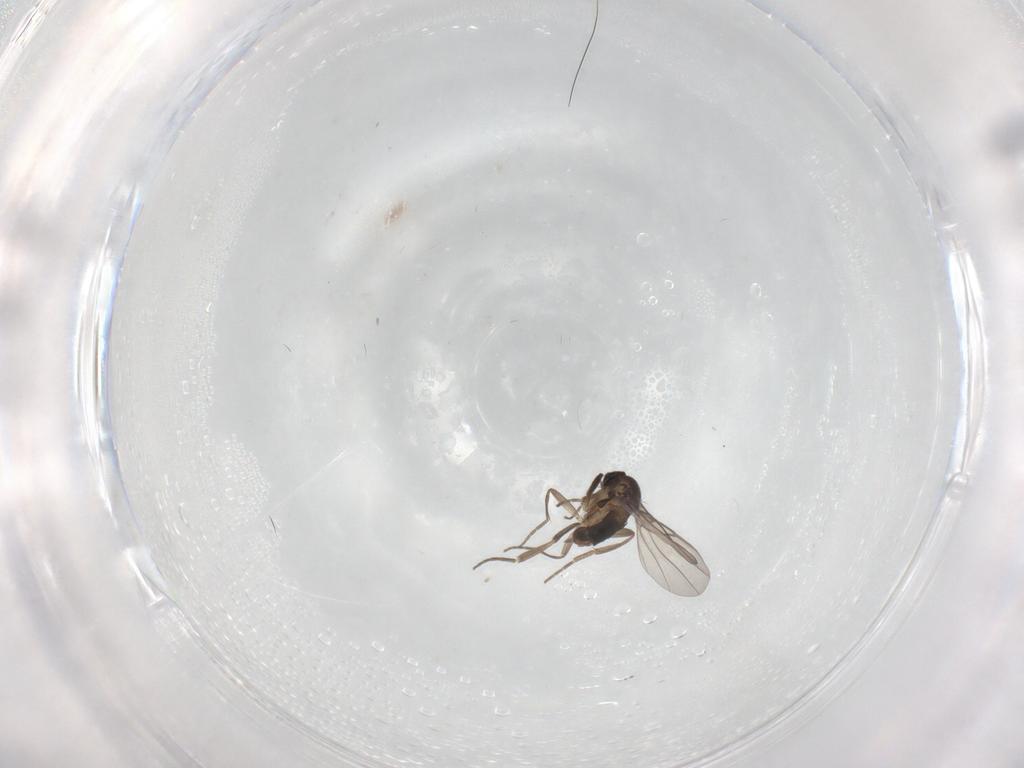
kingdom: Animalia
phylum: Arthropoda
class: Insecta
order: Diptera
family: Phoridae
